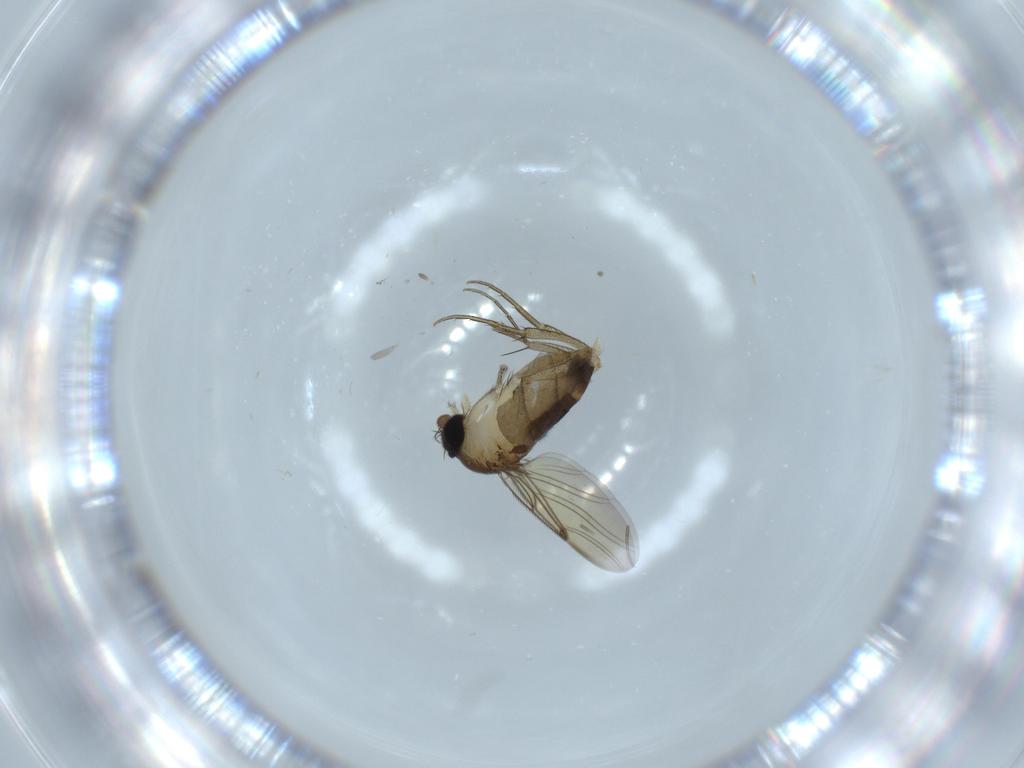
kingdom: Animalia
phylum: Arthropoda
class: Insecta
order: Diptera
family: Phoridae
